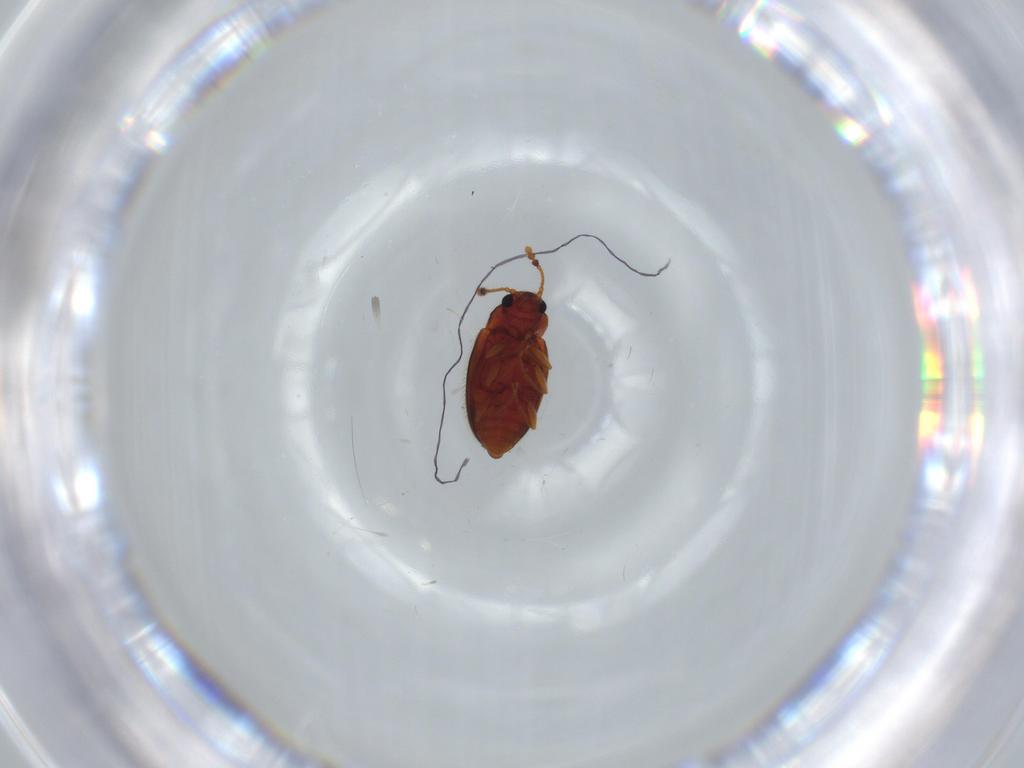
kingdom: Animalia
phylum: Arthropoda
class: Insecta
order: Coleoptera
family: Erotylidae
